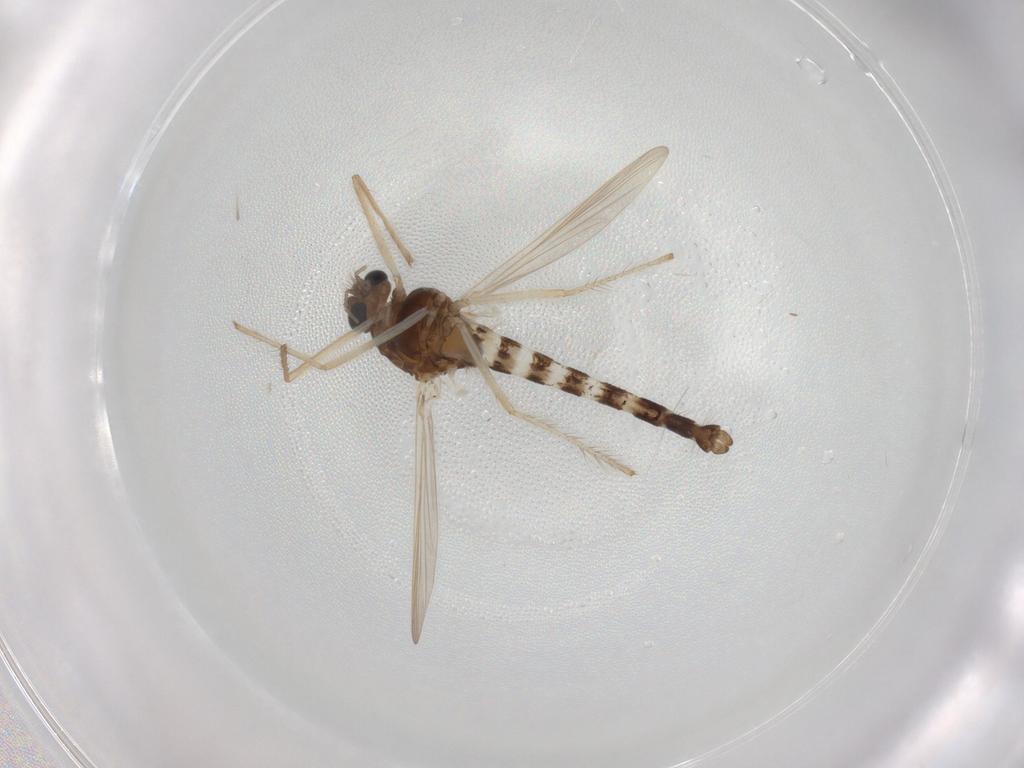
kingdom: Animalia
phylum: Arthropoda
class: Insecta
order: Diptera
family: Chironomidae
